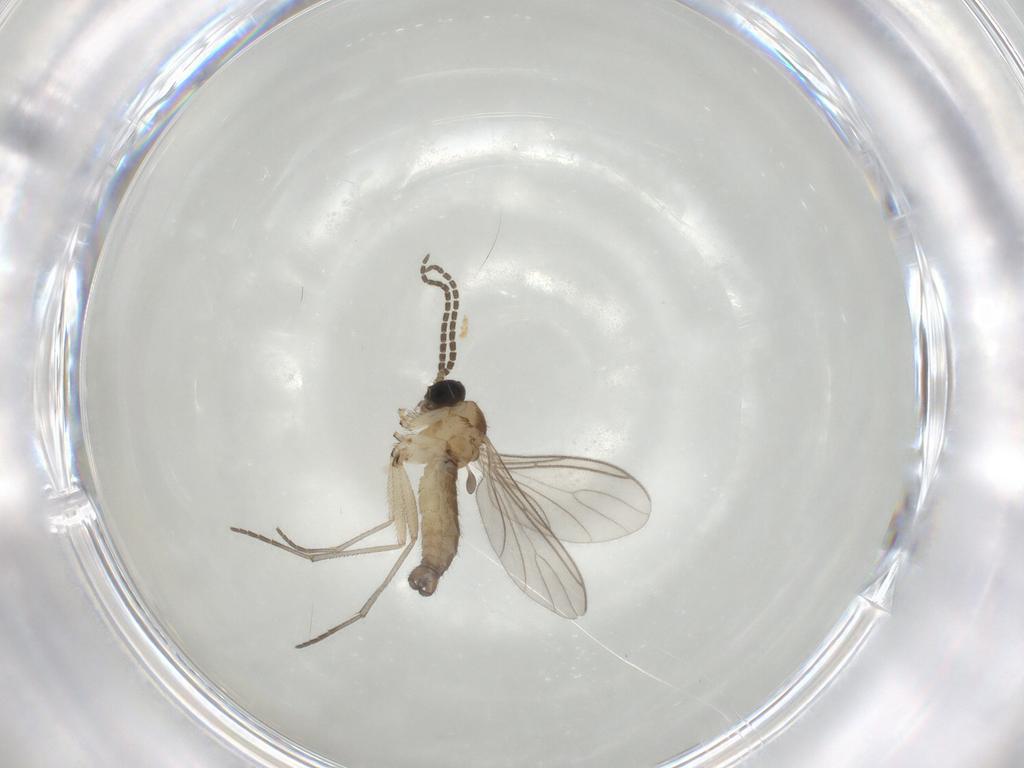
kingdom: Animalia
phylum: Arthropoda
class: Insecta
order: Diptera
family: Sciaridae
